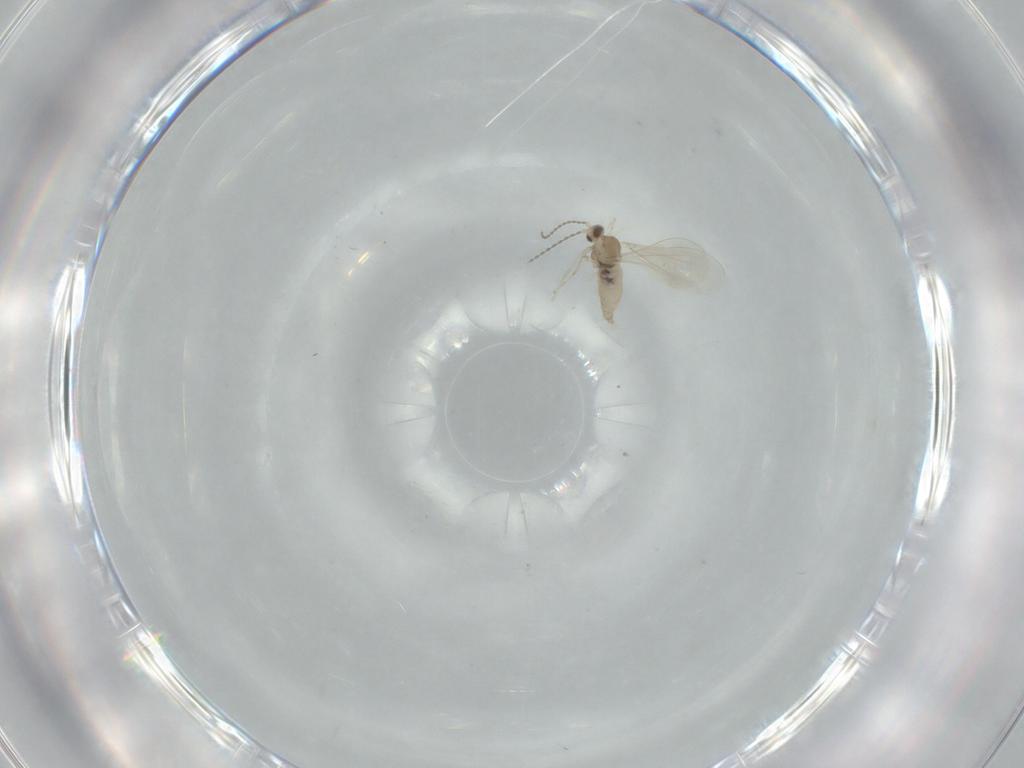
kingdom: Animalia
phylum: Arthropoda
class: Insecta
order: Diptera
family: Cecidomyiidae
